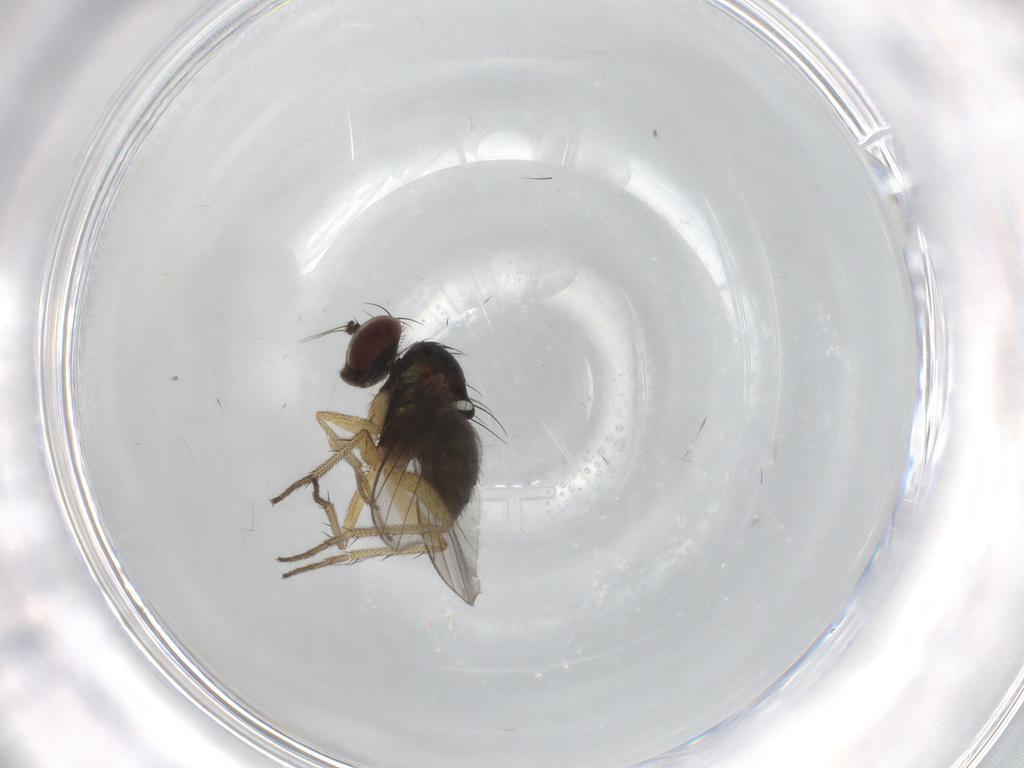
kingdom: Animalia
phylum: Arthropoda
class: Insecta
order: Diptera
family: Dolichopodidae
